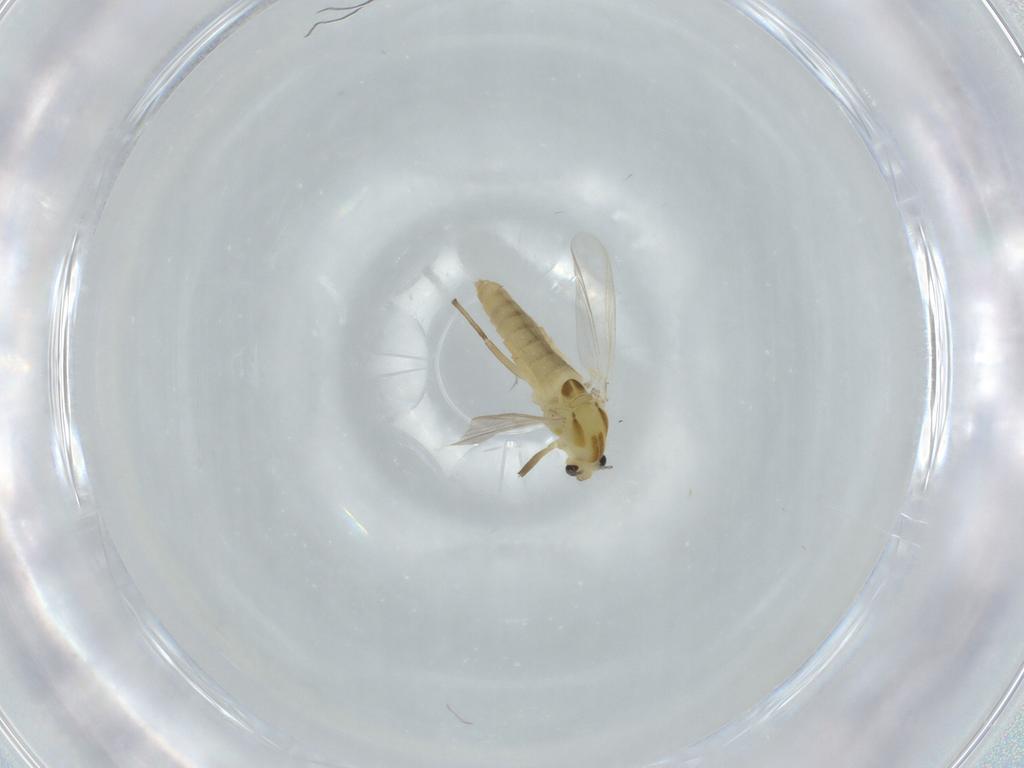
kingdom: Animalia
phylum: Arthropoda
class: Insecta
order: Diptera
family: Chironomidae
